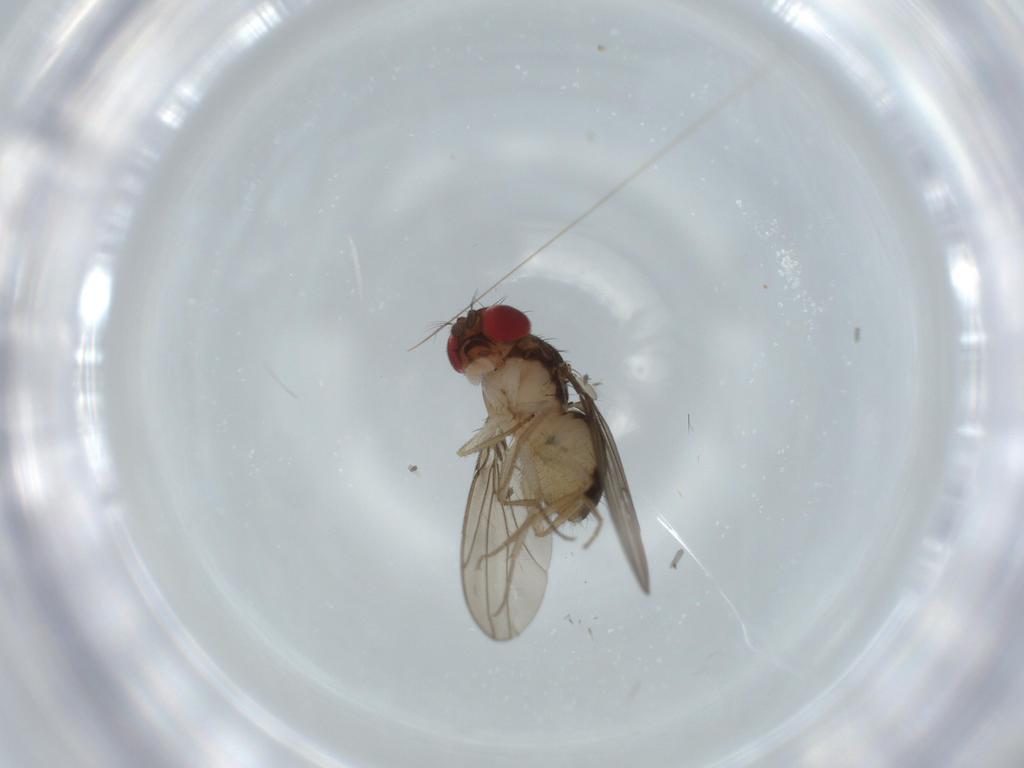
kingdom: Animalia
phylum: Arthropoda
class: Insecta
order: Diptera
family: Drosophilidae
